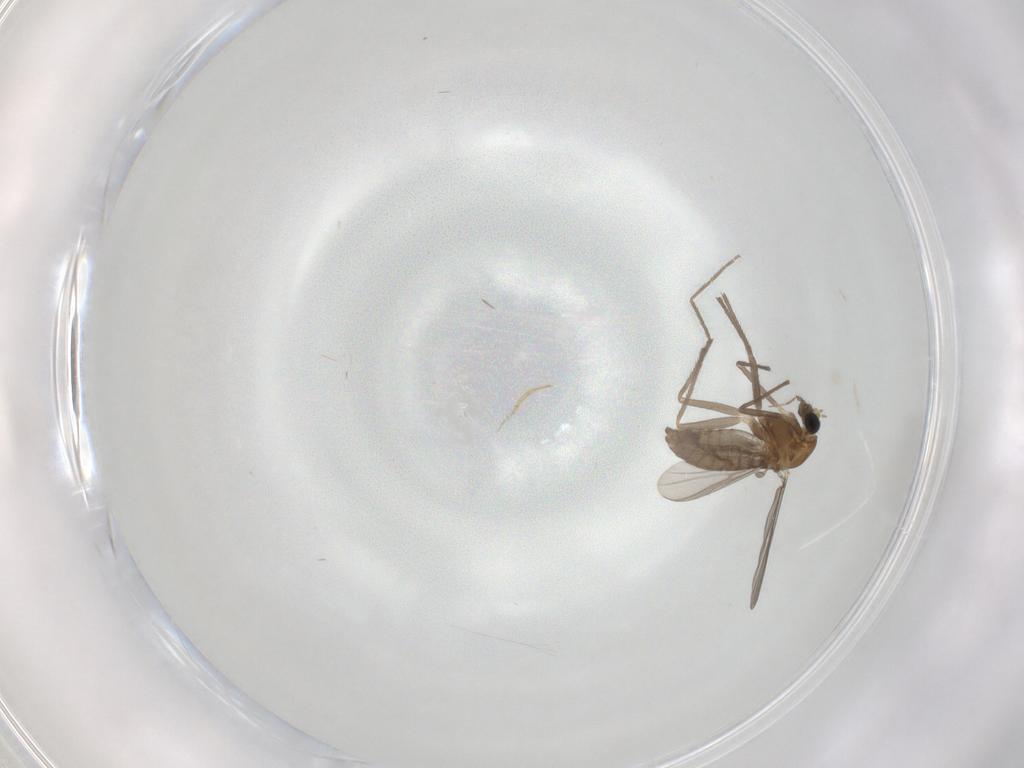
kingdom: Animalia
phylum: Arthropoda
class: Insecta
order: Diptera
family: Chironomidae
